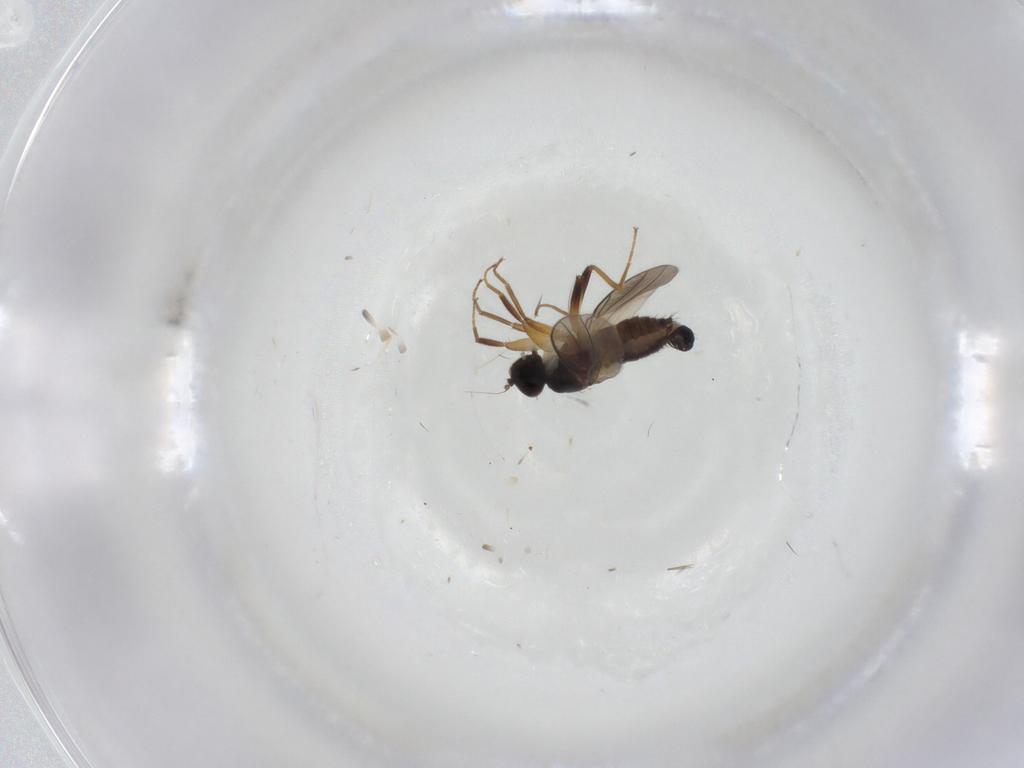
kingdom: Animalia
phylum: Arthropoda
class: Insecta
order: Diptera
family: Hybotidae
